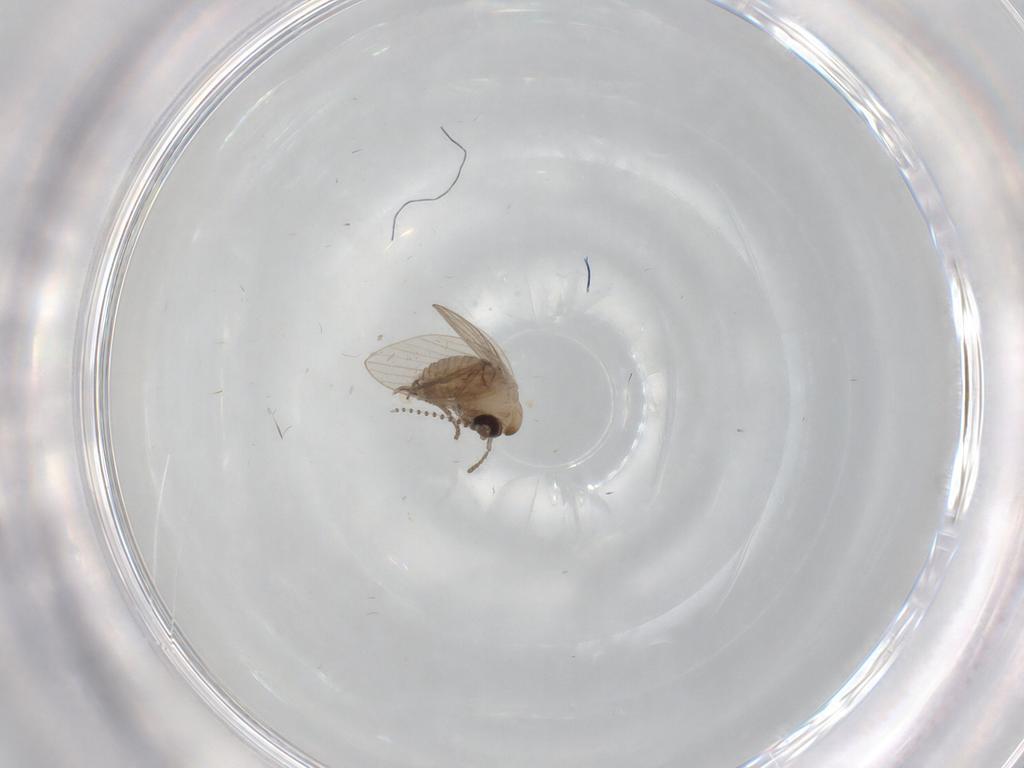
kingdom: Animalia
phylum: Arthropoda
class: Insecta
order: Diptera
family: Psychodidae
